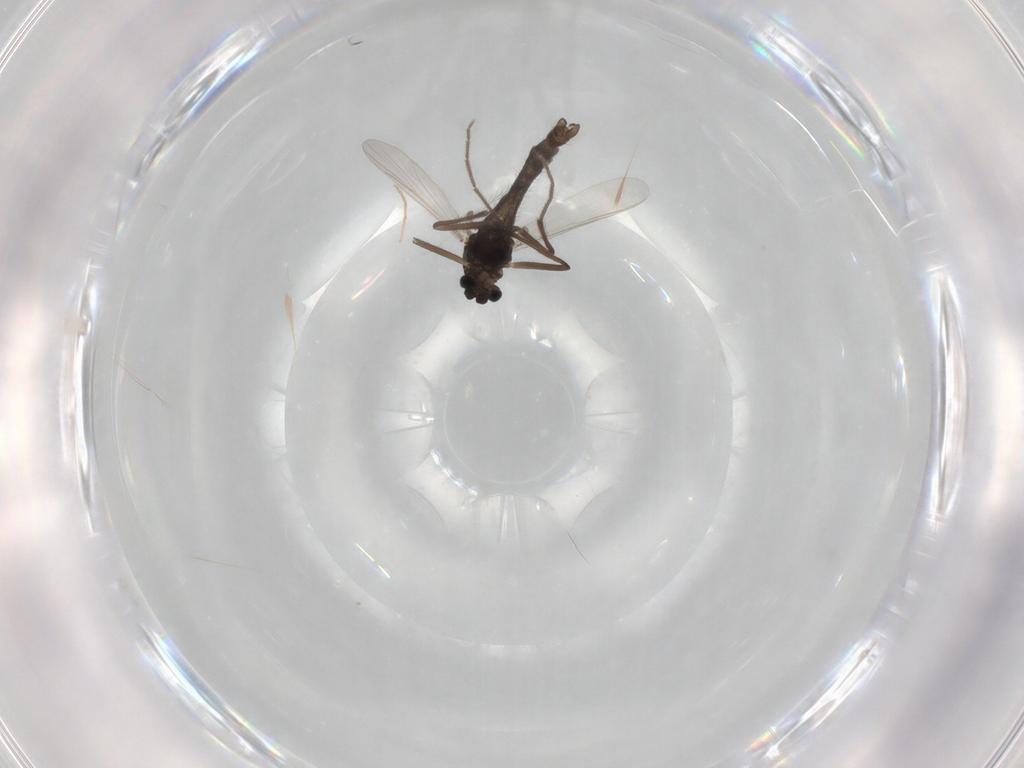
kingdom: Animalia
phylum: Arthropoda
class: Insecta
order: Diptera
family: Chironomidae
